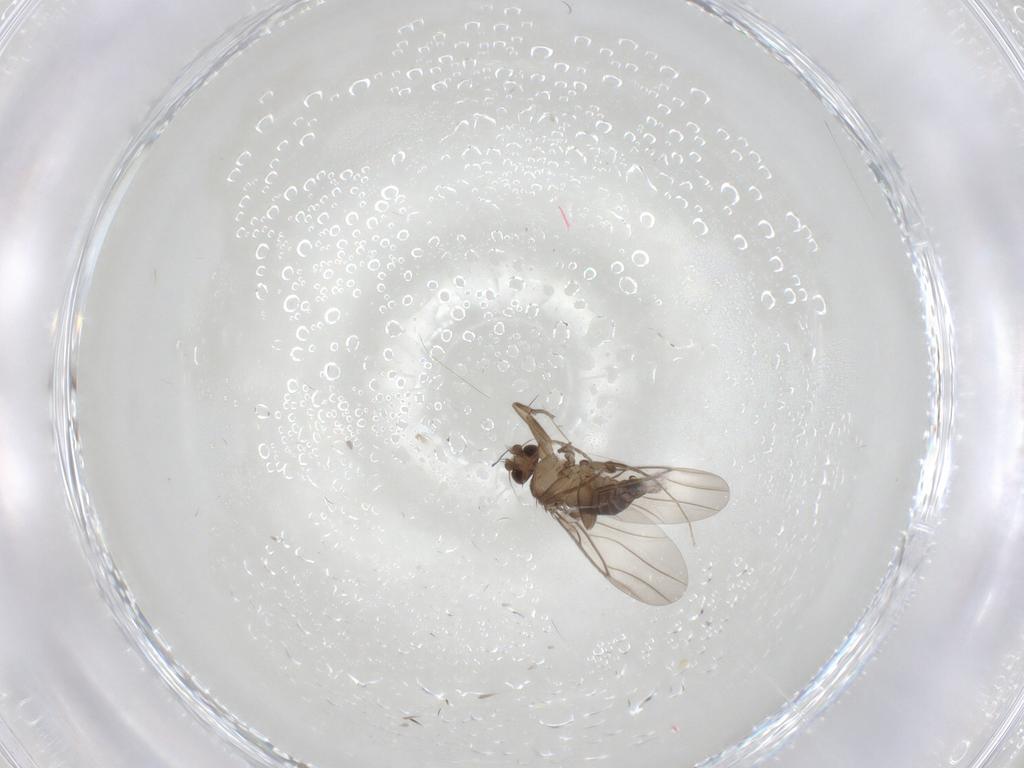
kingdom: Animalia
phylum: Arthropoda
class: Insecta
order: Diptera
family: Phoridae
